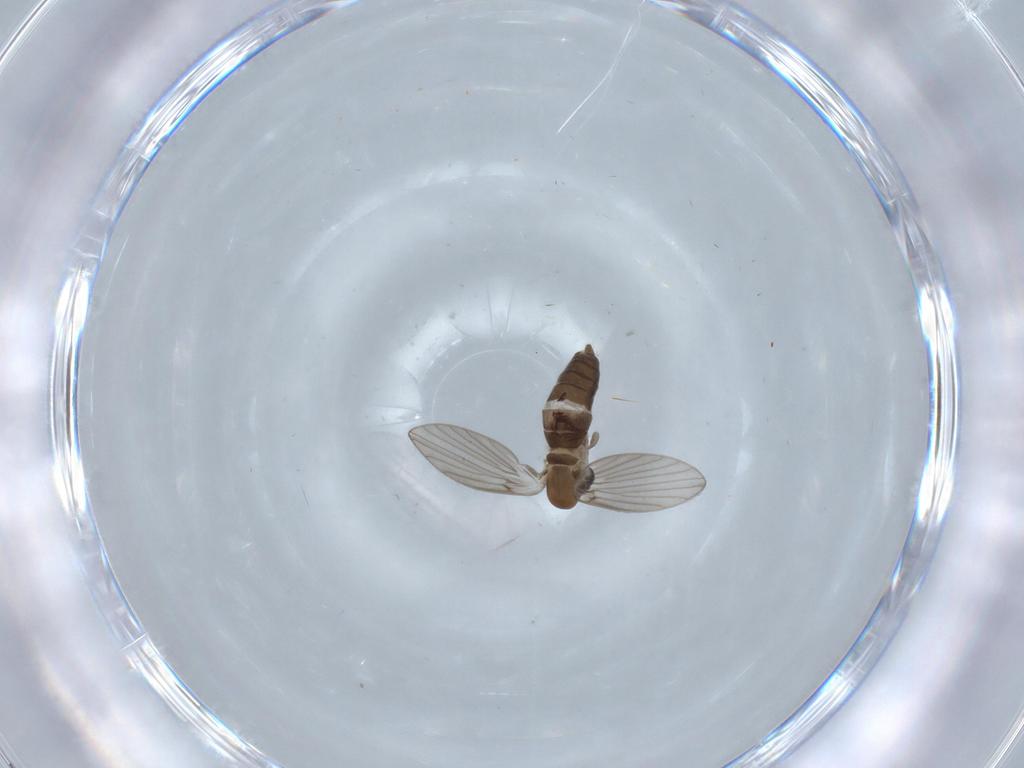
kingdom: Animalia
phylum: Arthropoda
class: Insecta
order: Diptera
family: Psychodidae
